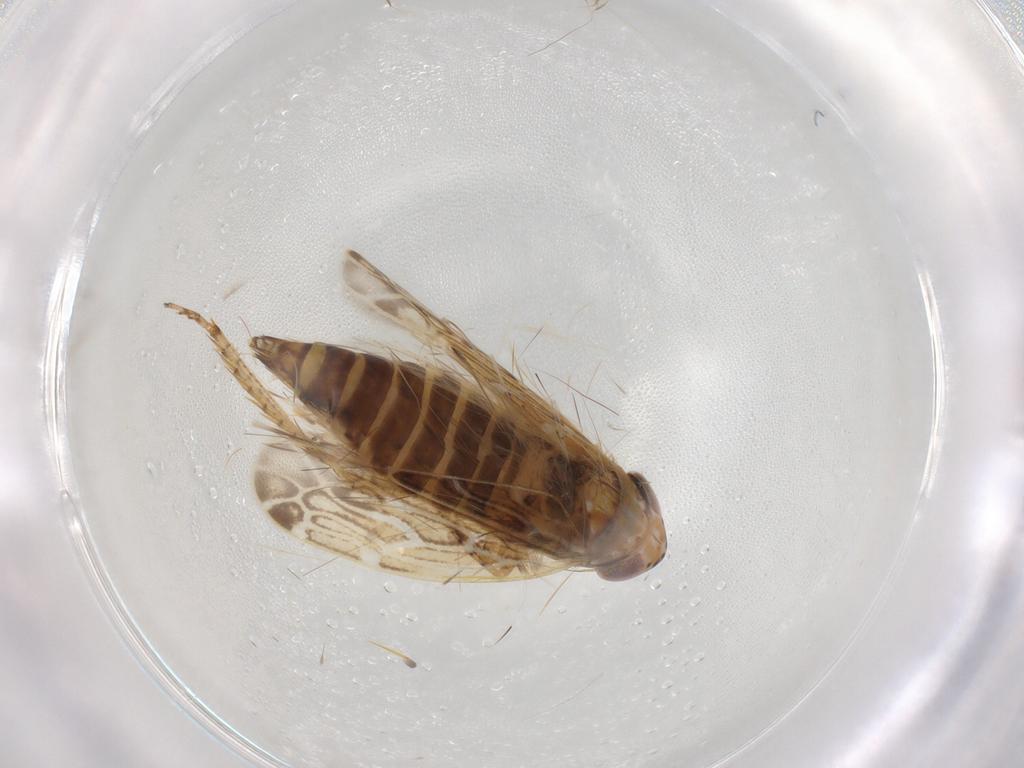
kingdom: Animalia
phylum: Arthropoda
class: Insecta
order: Hemiptera
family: Cicadellidae
